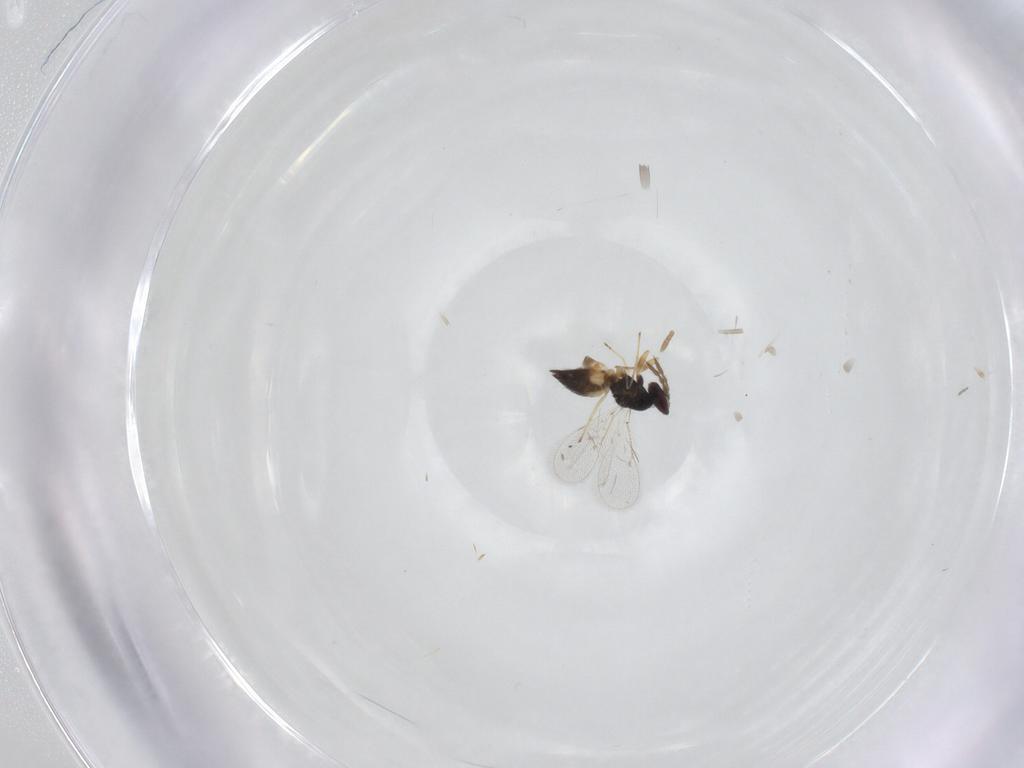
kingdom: Animalia
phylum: Arthropoda
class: Insecta
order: Hymenoptera
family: Eulophidae
